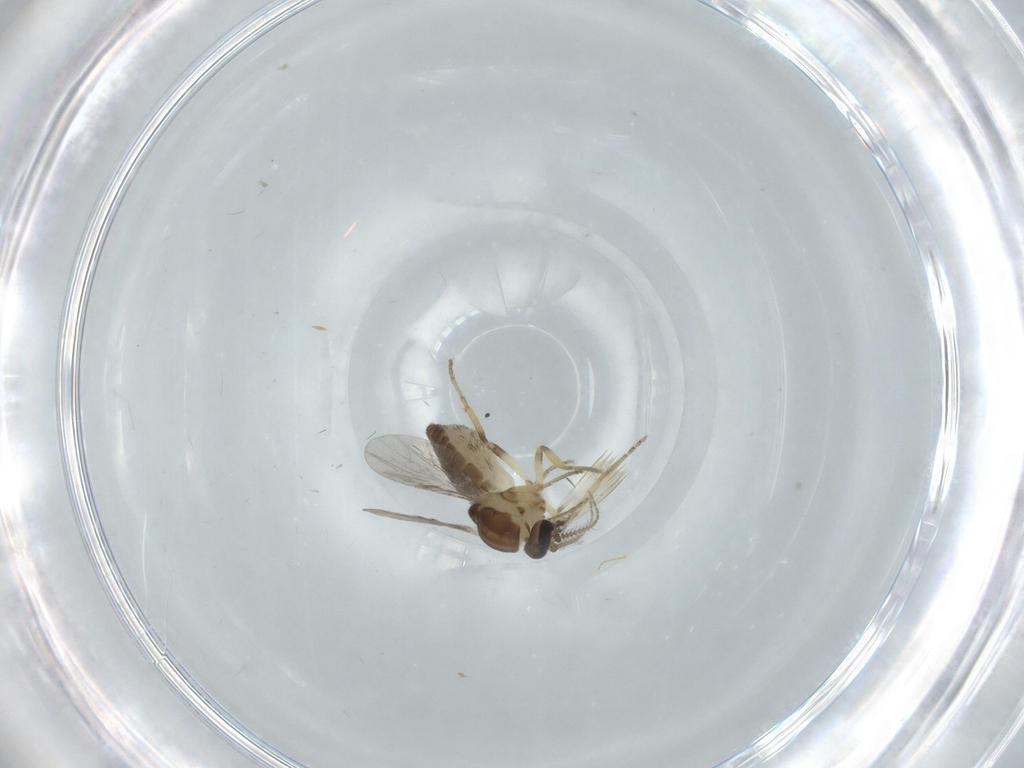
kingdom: Animalia
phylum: Arthropoda
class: Insecta
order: Diptera
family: Ceratopogonidae
